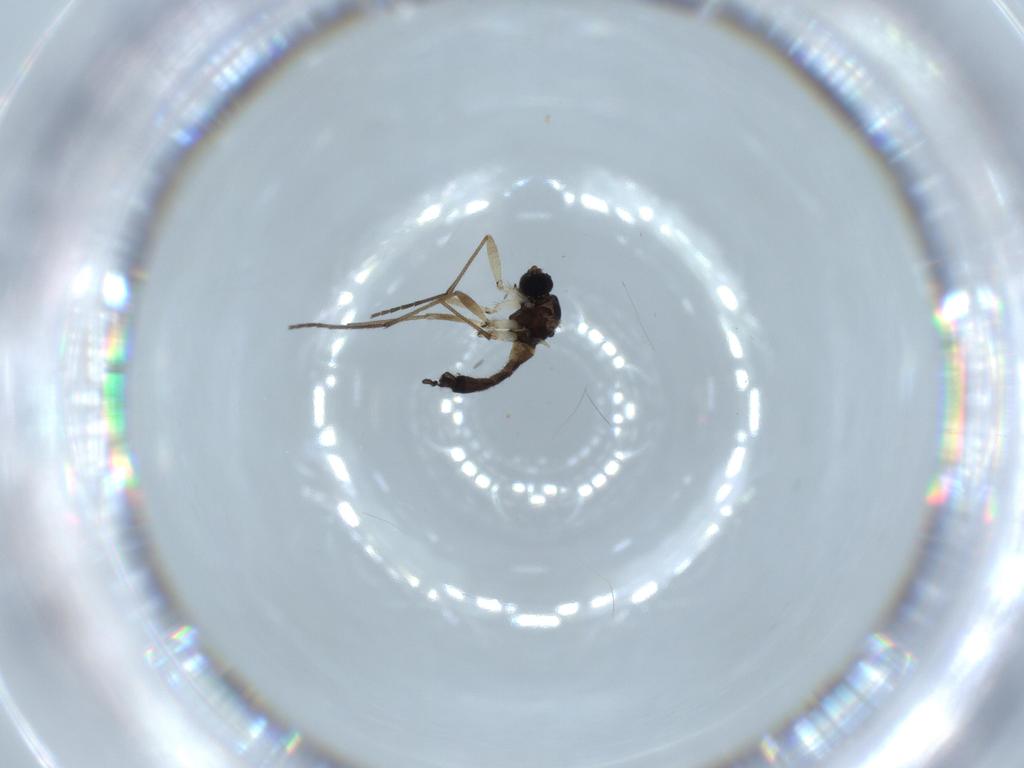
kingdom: Animalia
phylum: Arthropoda
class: Insecta
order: Diptera
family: Sciaridae
